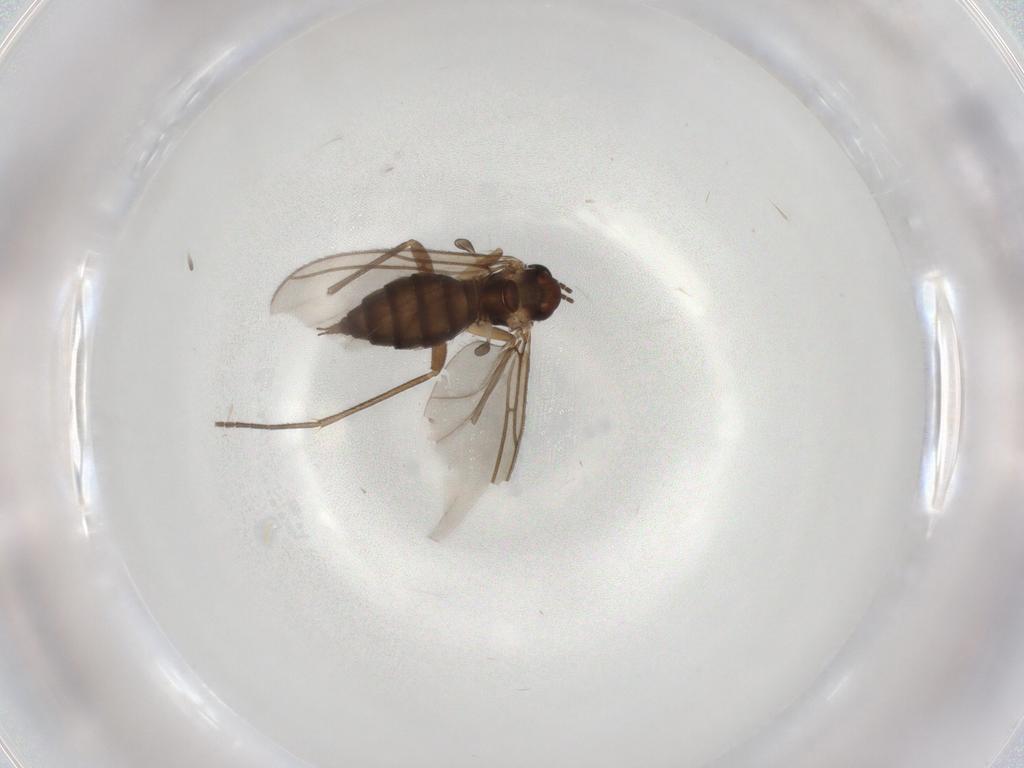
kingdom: Animalia
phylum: Arthropoda
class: Insecta
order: Diptera
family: Sciaridae
